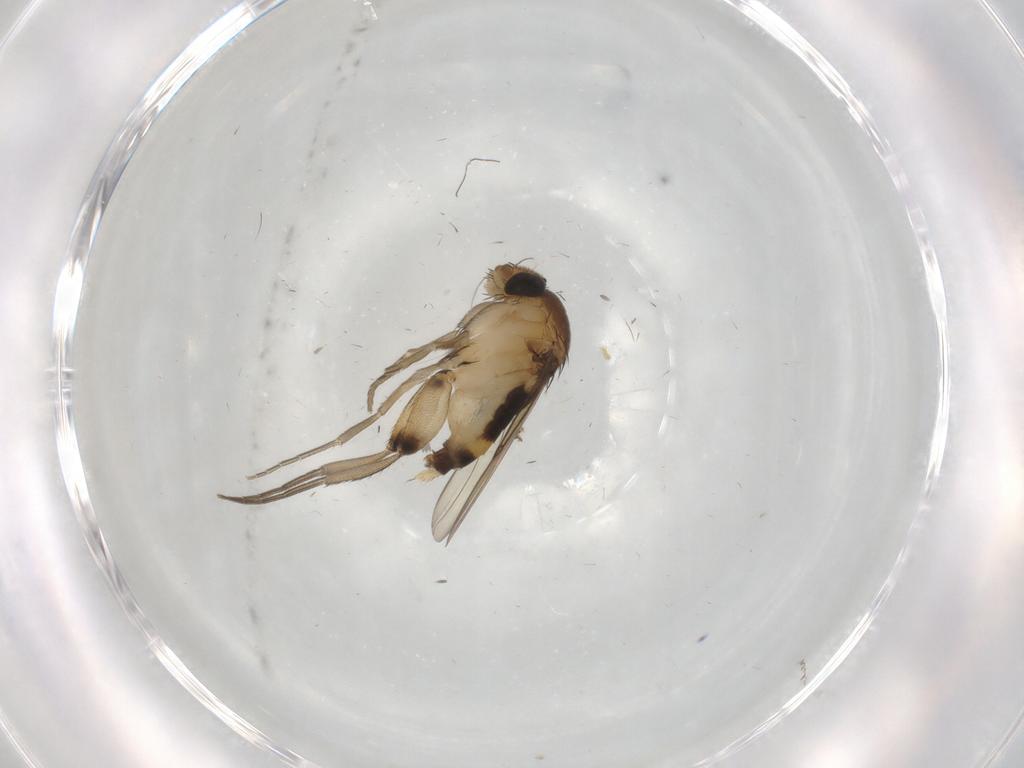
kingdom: Animalia
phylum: Arthropoda
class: Insecta
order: Diptera
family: Phoridae
